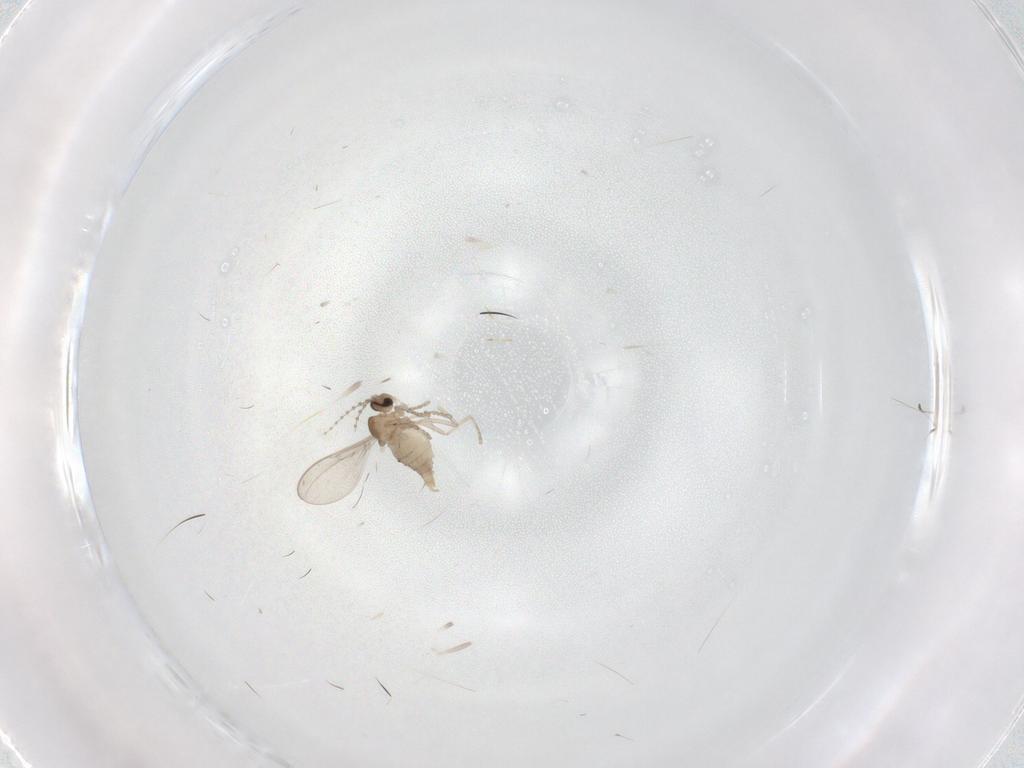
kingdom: Animalia
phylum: Arthropoda
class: Insecta
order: Diptera
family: Cecidomyiidae
